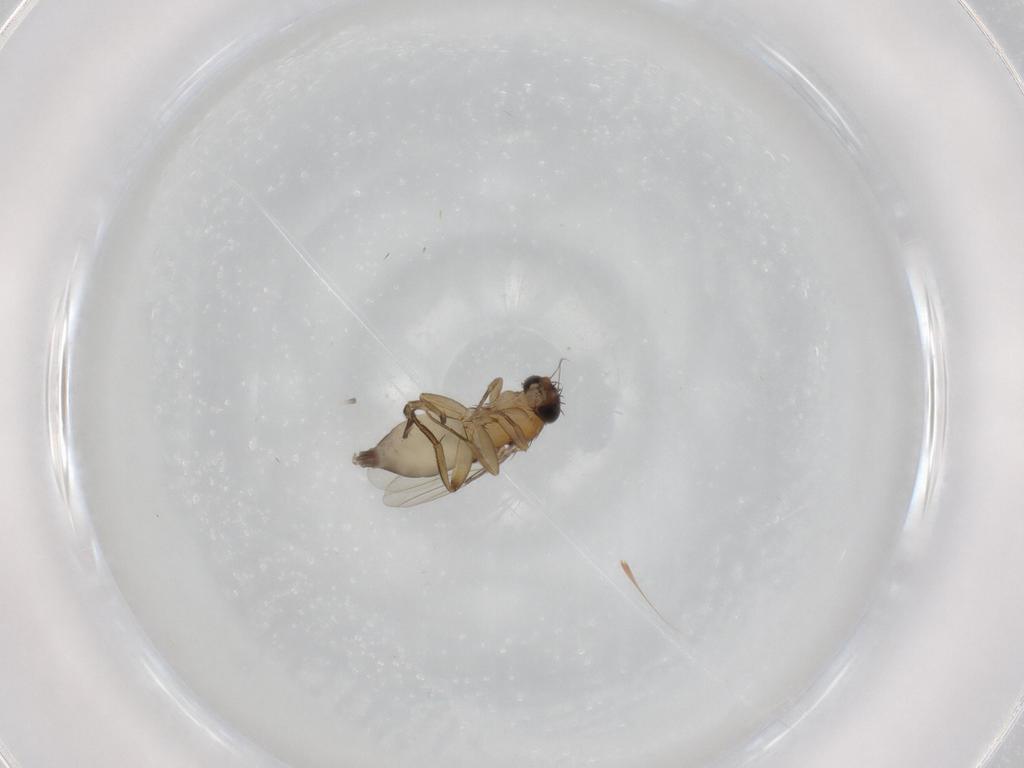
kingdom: Animalia
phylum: Arthropoda
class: Insecta
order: Diptera
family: Phoridae
